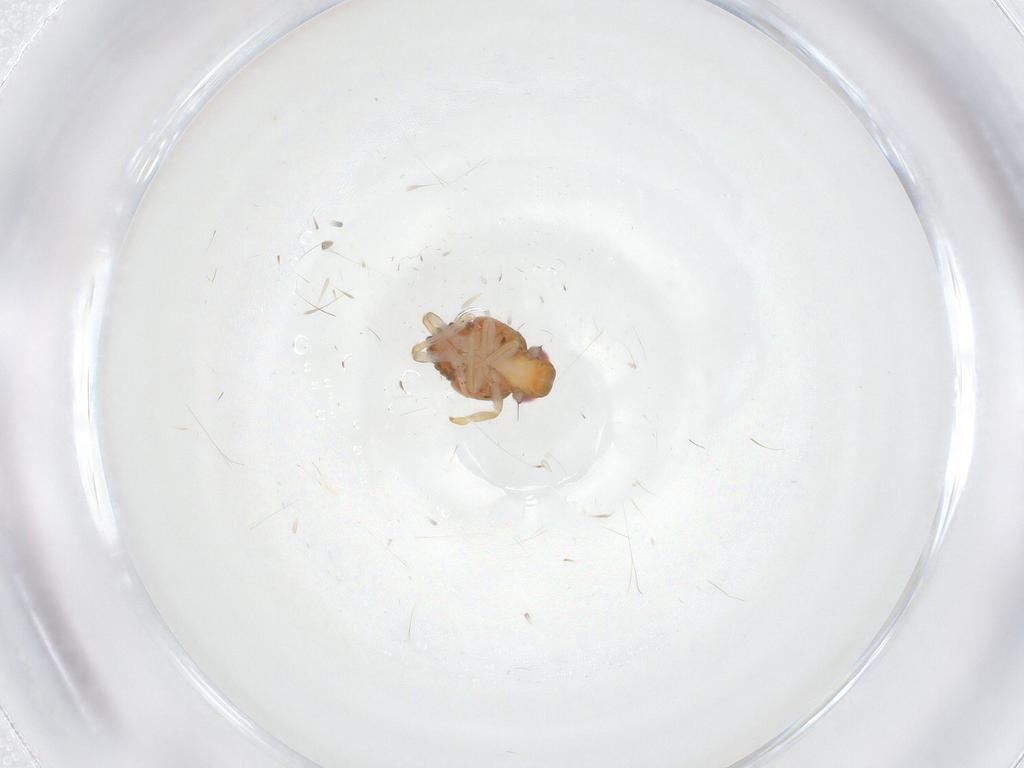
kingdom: Animalia
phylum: Arthropoda
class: Insecta
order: Hemiptera
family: Issidae
